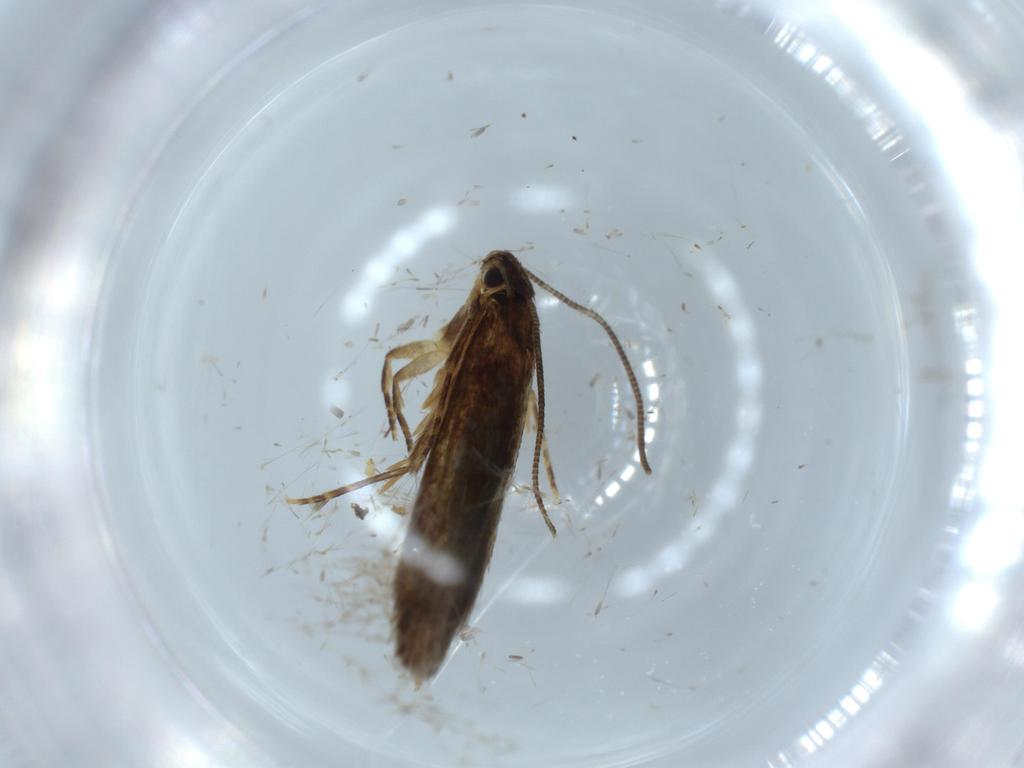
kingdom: Animalia
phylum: Arthropoda
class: Insecta
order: Lepidoptera
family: Tineidae
